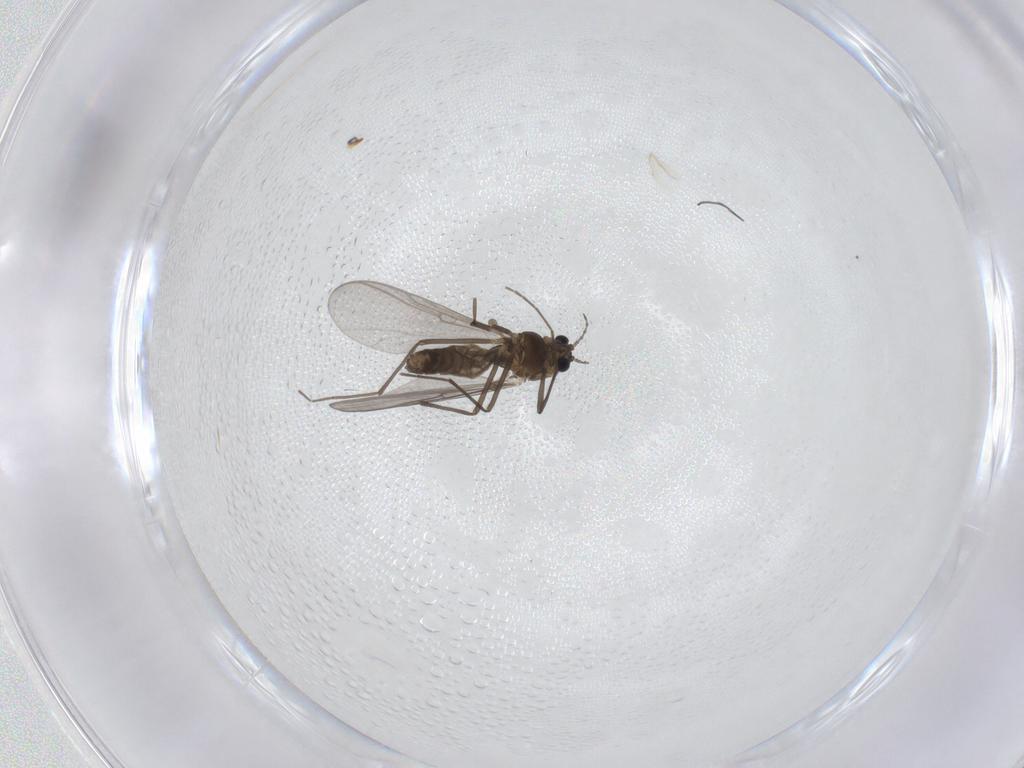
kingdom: Animalia
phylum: Arthropoda
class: Insecta
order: Diptera
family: Chironomidae
